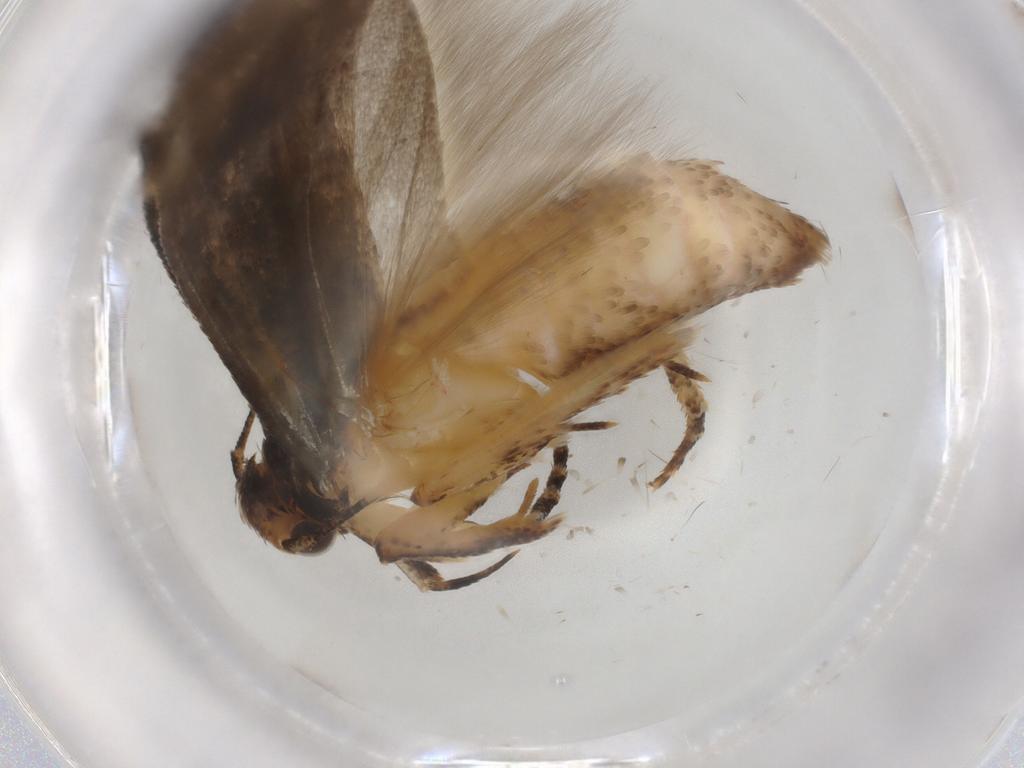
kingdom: Animalia
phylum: Arthropoda
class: Insecta
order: Lepidoptera
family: Gelechiidae
